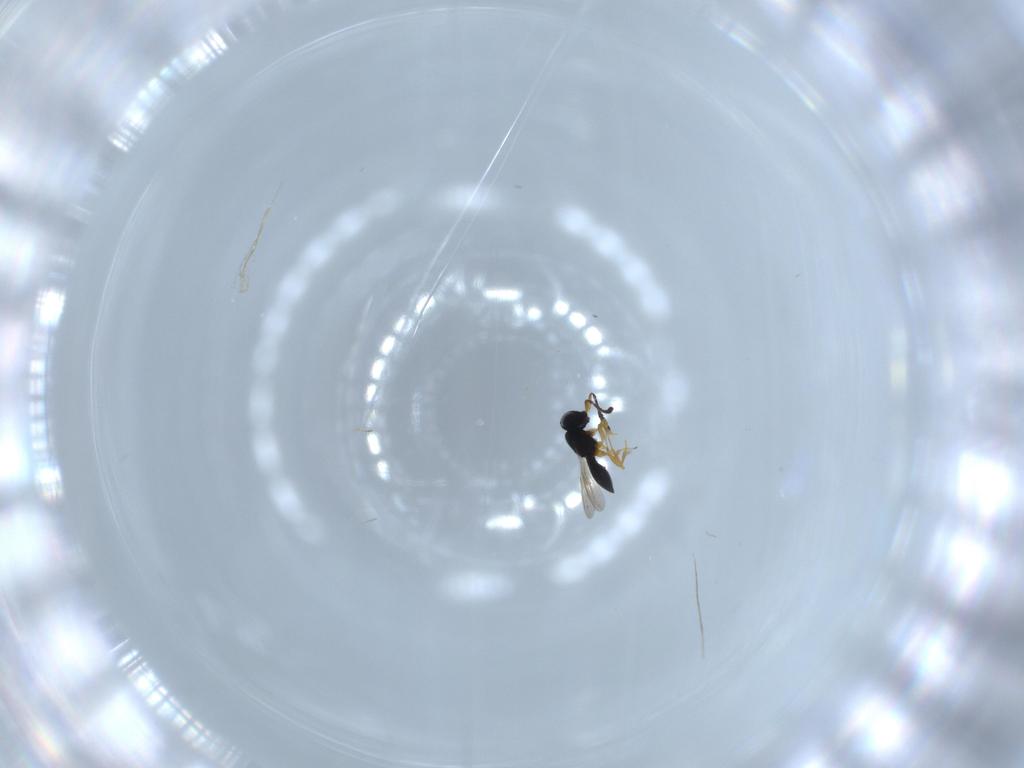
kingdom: Animalia
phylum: Arthropoda
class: Insecta
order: Hymenoptera
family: Scelionidae
